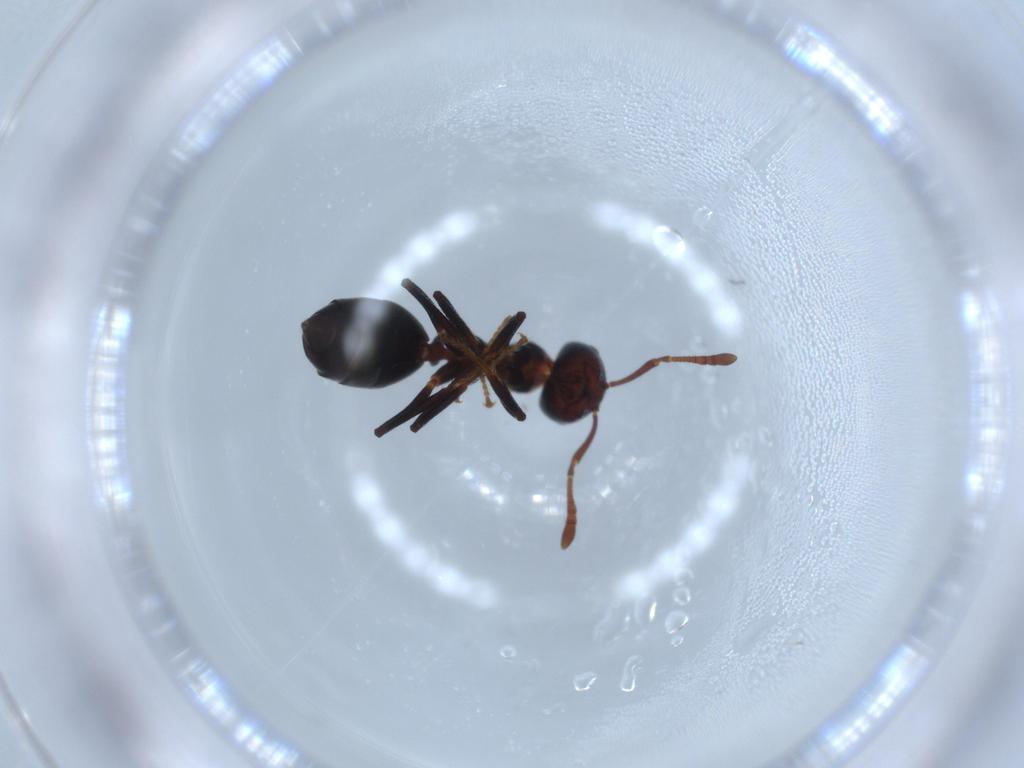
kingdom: Animalia
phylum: Arthropoda
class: Insecta
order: Hymenoptera
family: Formicidae
